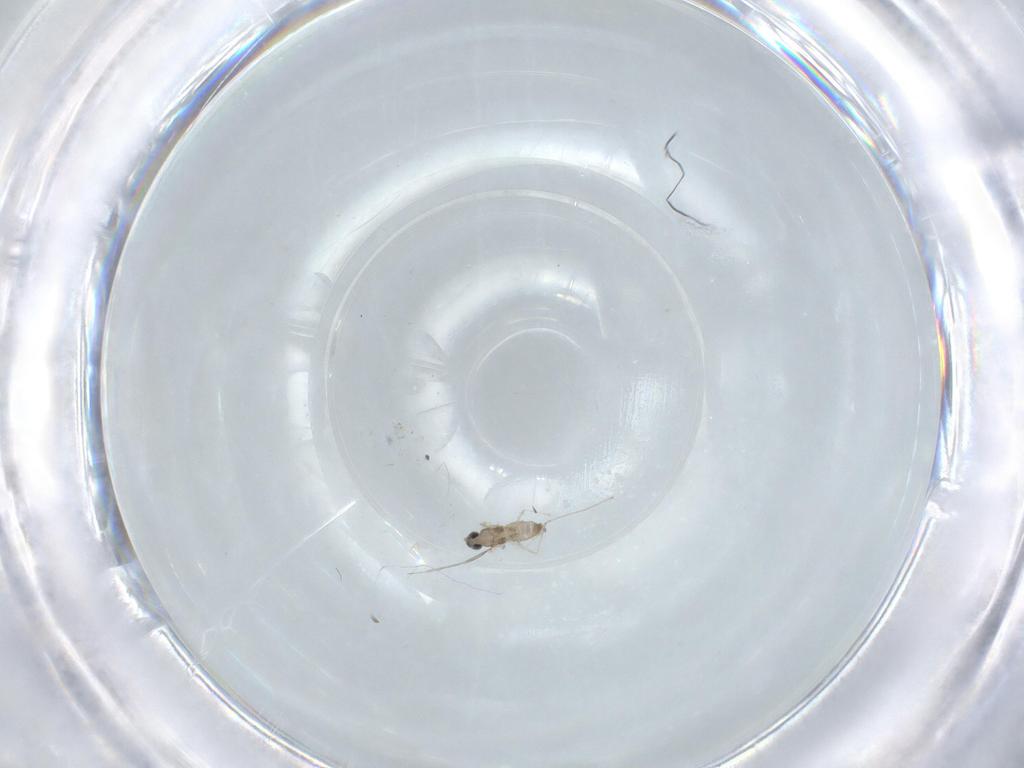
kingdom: Animalia
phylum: Arthropoda
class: Insecta
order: Diptera
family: Cecidomyiidae
